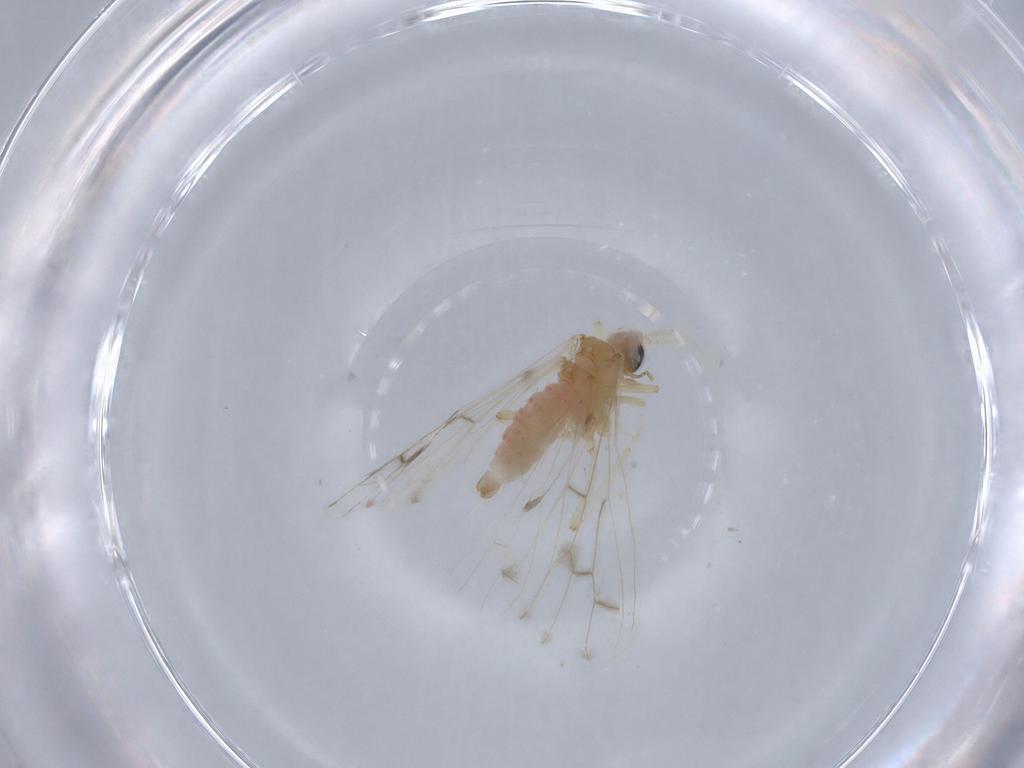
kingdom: Animalia
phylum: Arthropoda
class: Insecta
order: Neuroptera
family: Coniopterygidae
